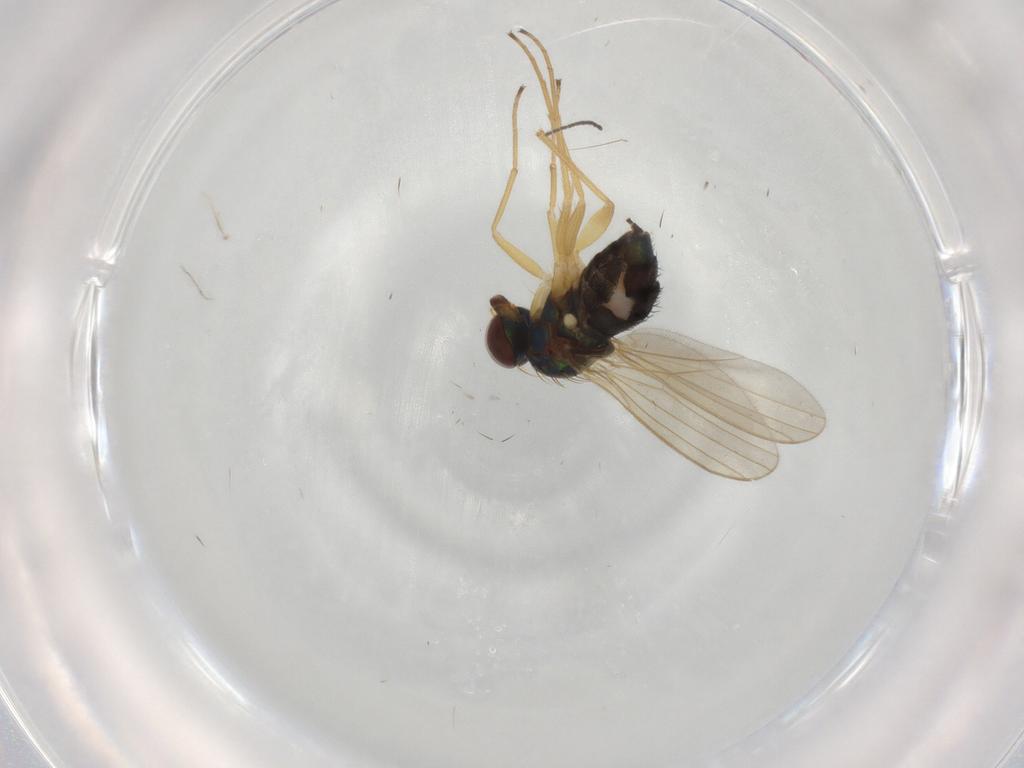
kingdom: Animalia
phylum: Arthropoda
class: Insecta
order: Diptera
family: Dolichopodidae
